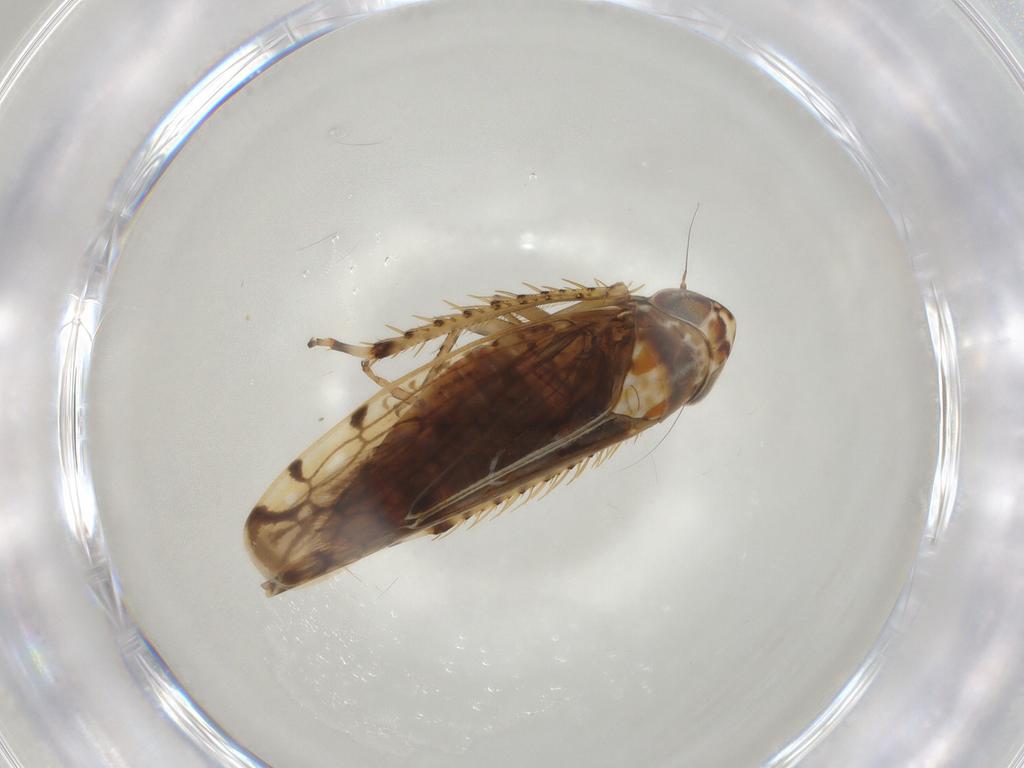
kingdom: Animalia
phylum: Arthropoda
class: Insecta
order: Hemiptera
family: Cicadellidae
